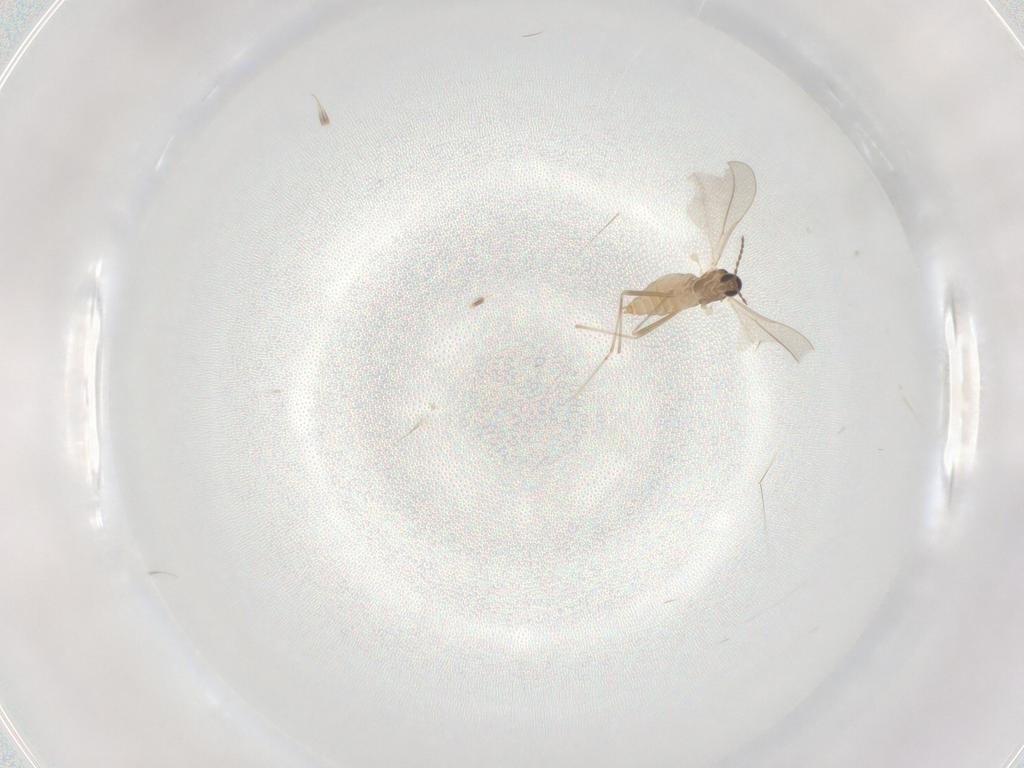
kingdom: Animalia
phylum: Arthropoda
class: Insecta
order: Diptera
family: Cecidomyiidae
